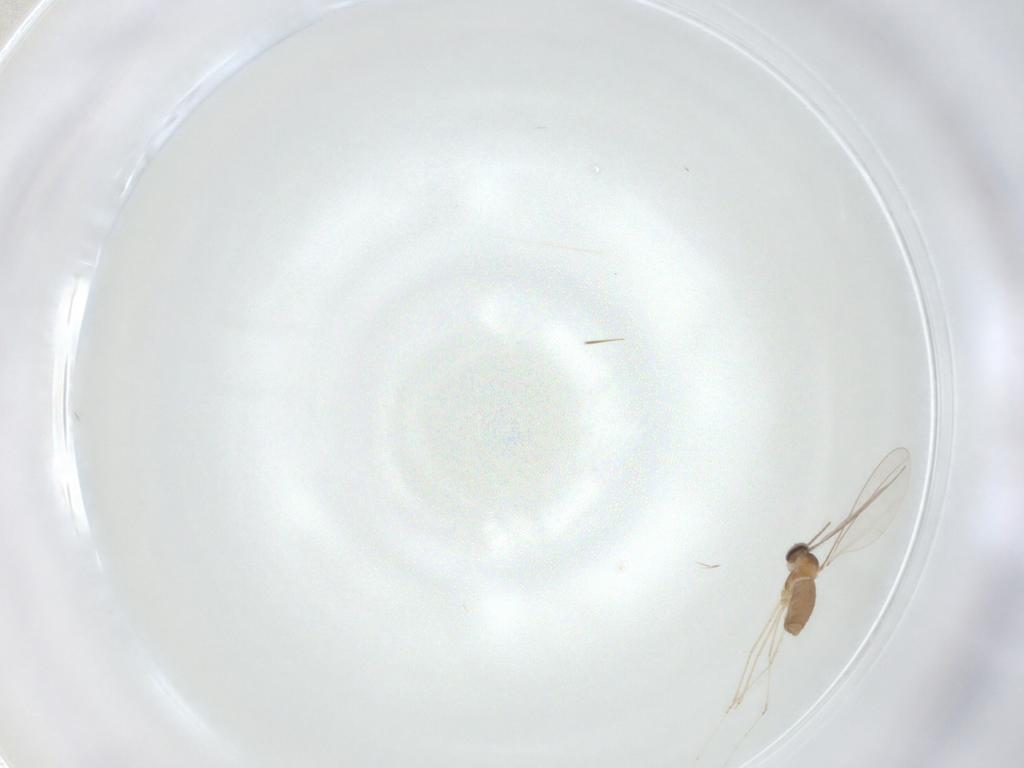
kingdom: Animalia
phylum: Arthropoda
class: Insecta
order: Diptera
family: Cecidomyiidae
